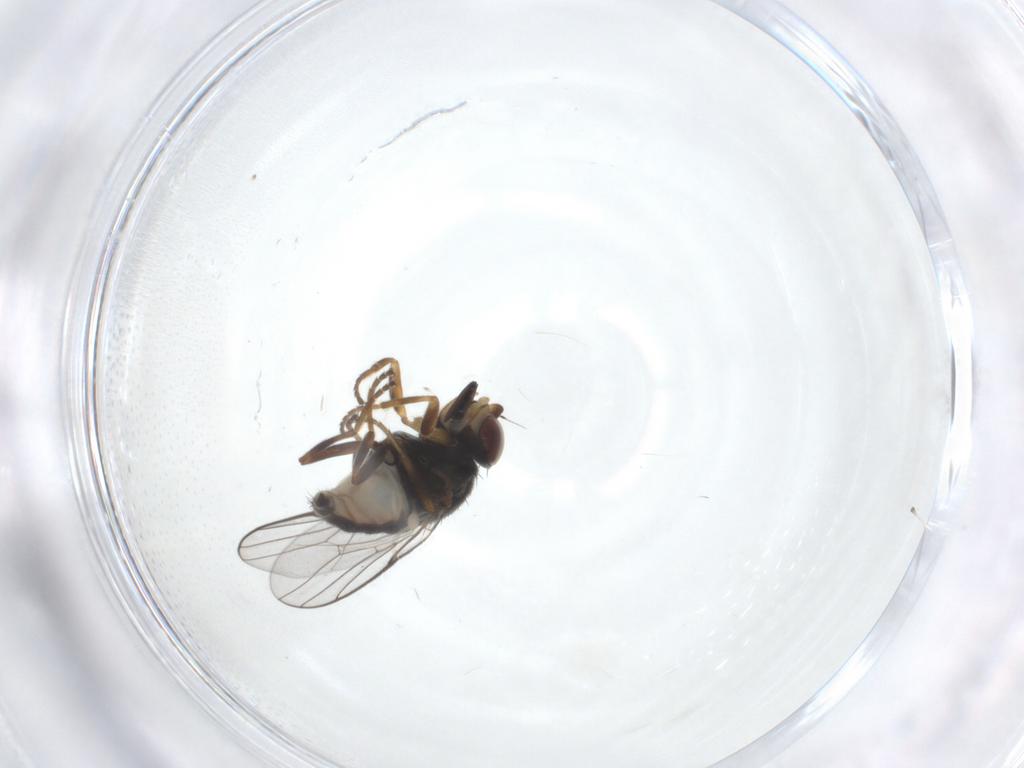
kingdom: Animalia
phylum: Arthropoda
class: Insecta
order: Diptera
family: Chloropidae
